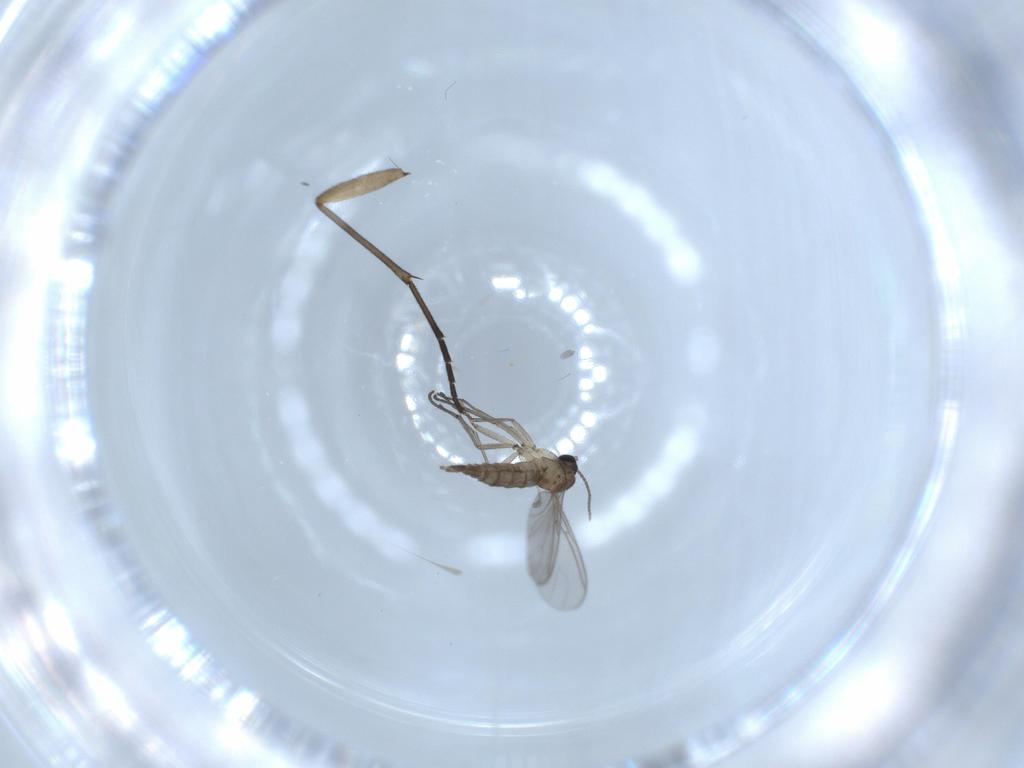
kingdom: Animalia
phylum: Arthropoda
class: Insecta
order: Diptera
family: Sciaridae
